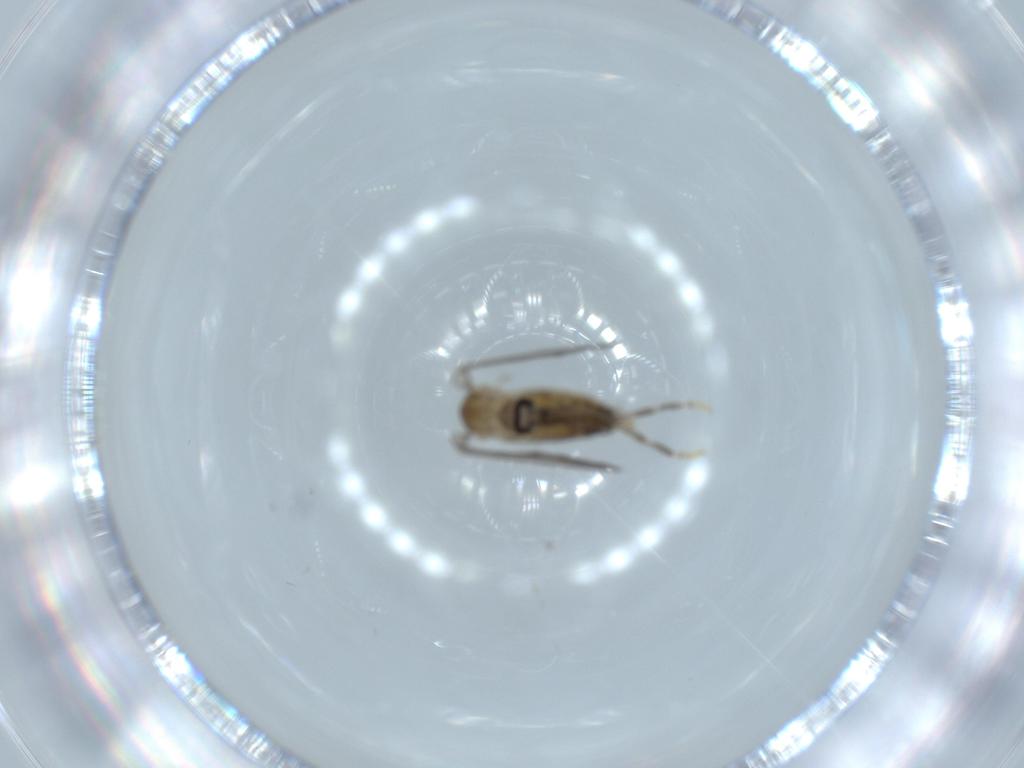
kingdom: Animalia
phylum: Arthropoda
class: Insecta
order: Diptera
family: Psychodidae
